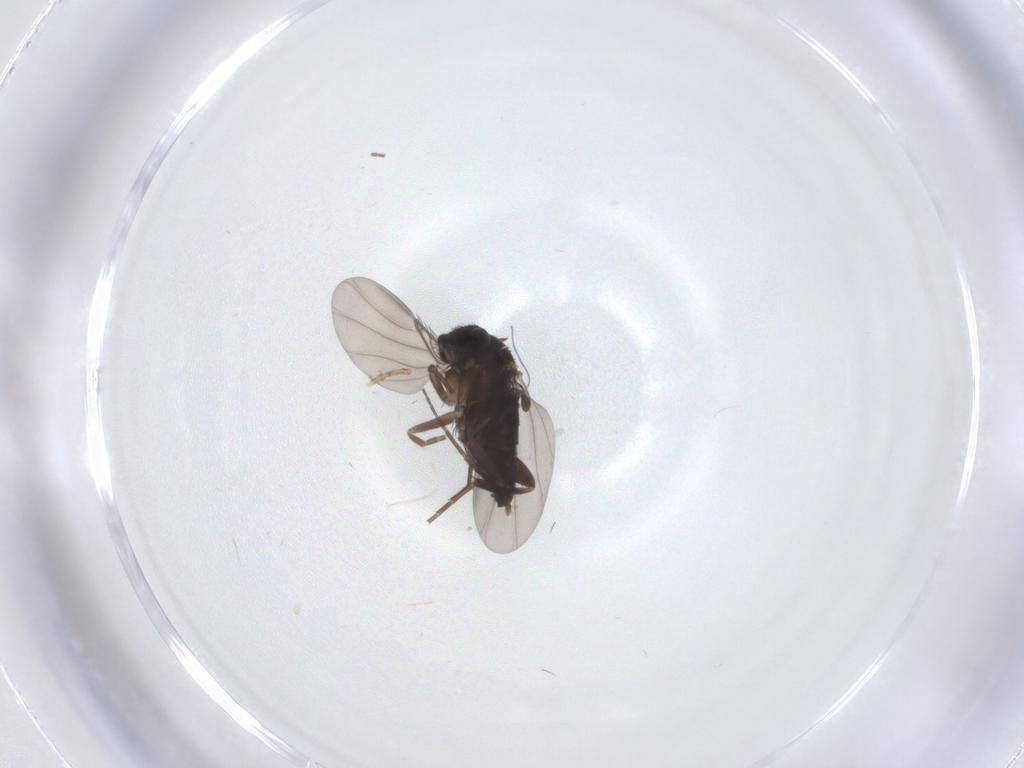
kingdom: Animalia
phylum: Arthropoda
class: Insecta
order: Diptera
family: Phoridae
